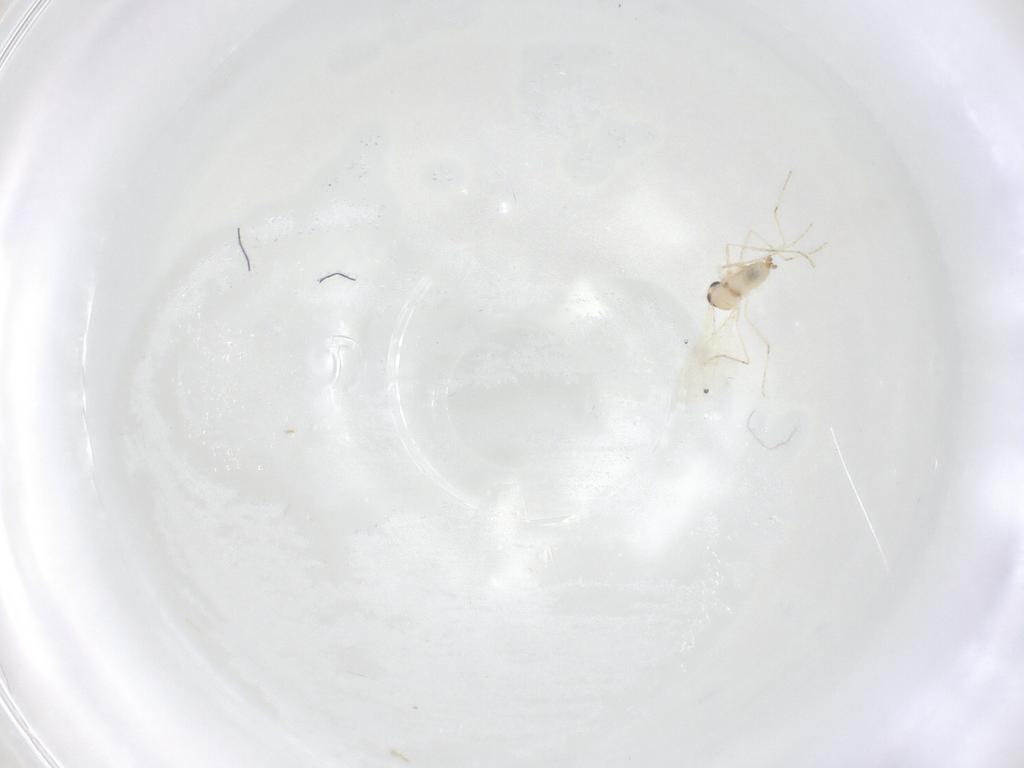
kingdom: Animalia
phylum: Arthropoda
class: Insecta
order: Diptera
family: Cecidomyiidae
